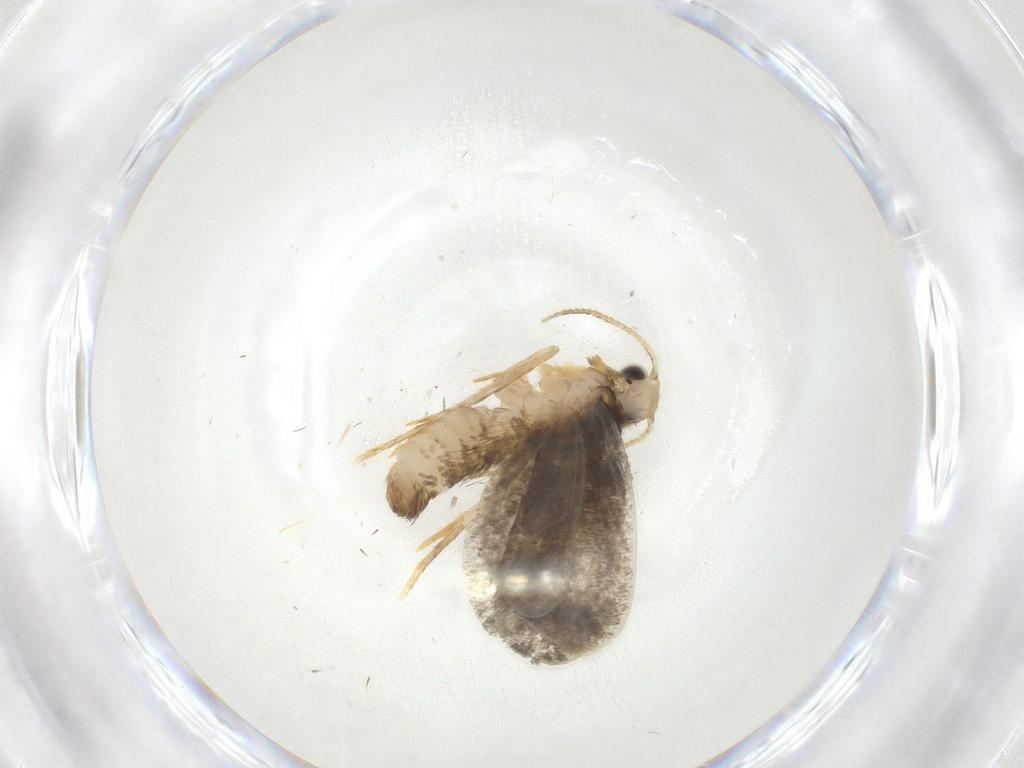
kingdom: Animalia
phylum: Arthropoda
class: Insecta
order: Lepidoptera
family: Psychidae
